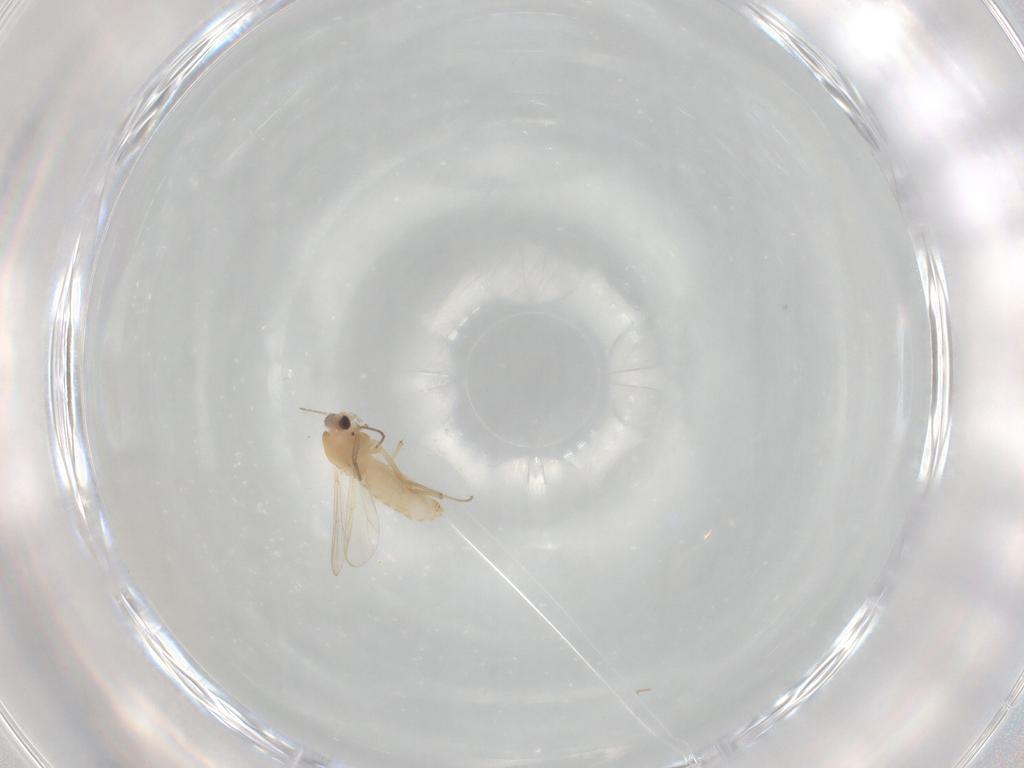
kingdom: Animalia
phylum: Arthropoda
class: Insecta
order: Diptera
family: Chironomidae
